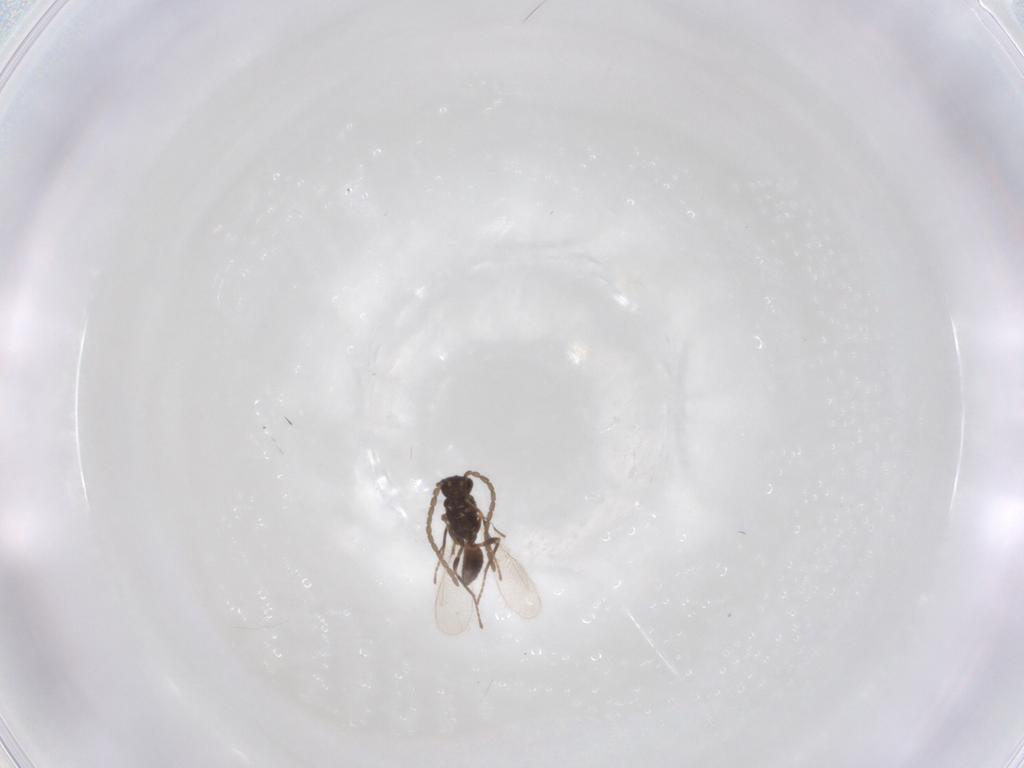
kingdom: Animalia
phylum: Arthropoda
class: Insecta
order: Hymenoptera
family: Mymaridae
